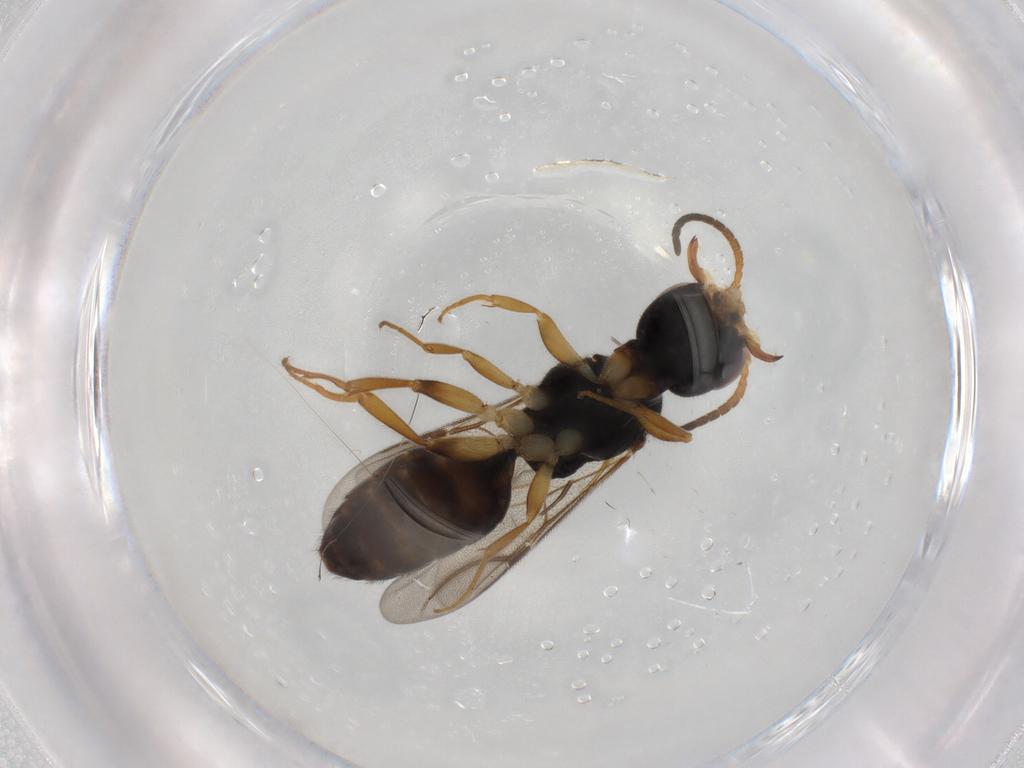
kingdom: Animalia
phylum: Arthropoda
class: Insecta
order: Hymenoptera
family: Bethylidae
